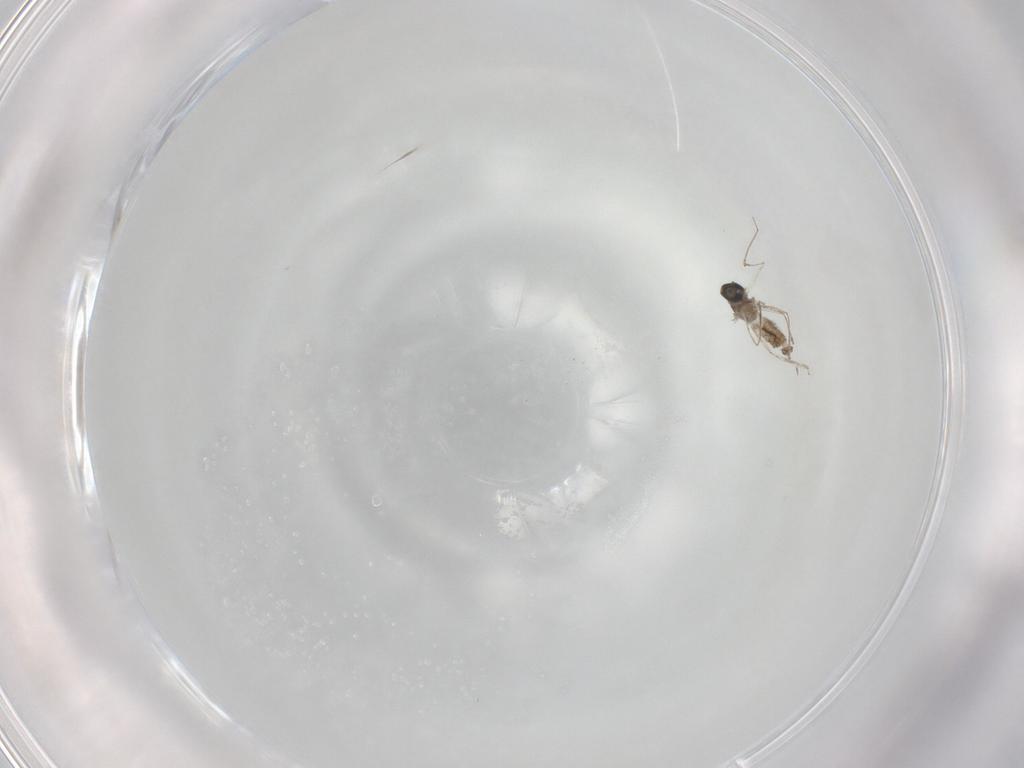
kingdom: Animalia
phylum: Arthropoda
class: Insecta
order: Diptera
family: Cecidomyiidae
